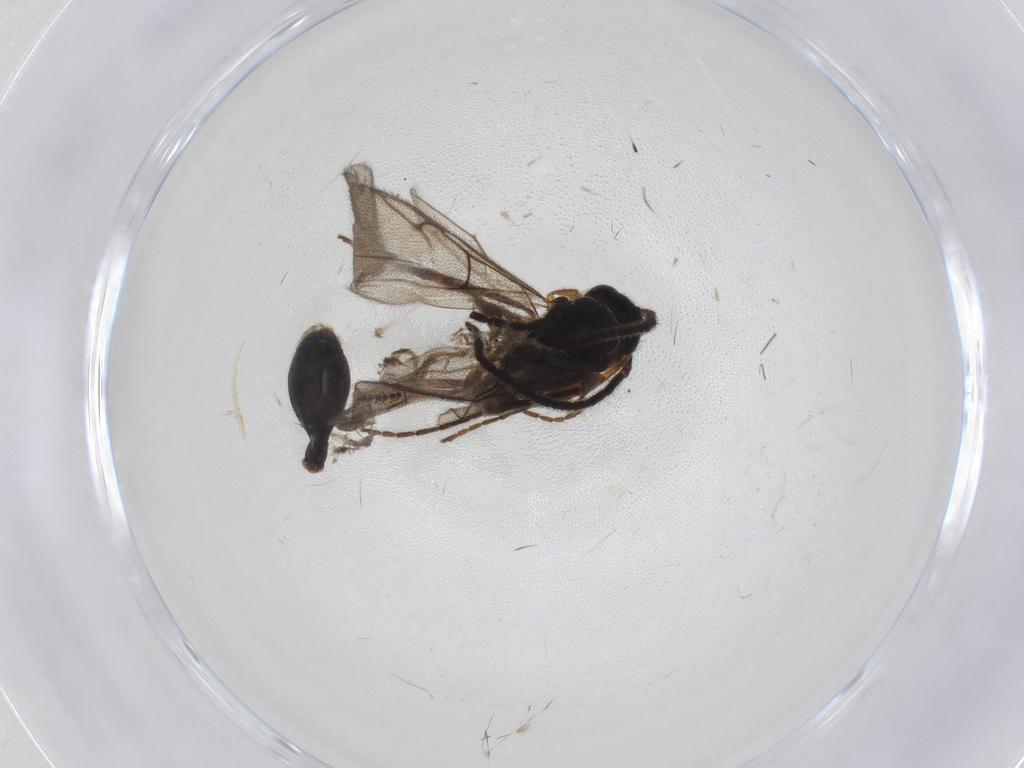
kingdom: Animalia
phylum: Arthropoda
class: Insecta
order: Hymenoptera
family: Diapriidae
